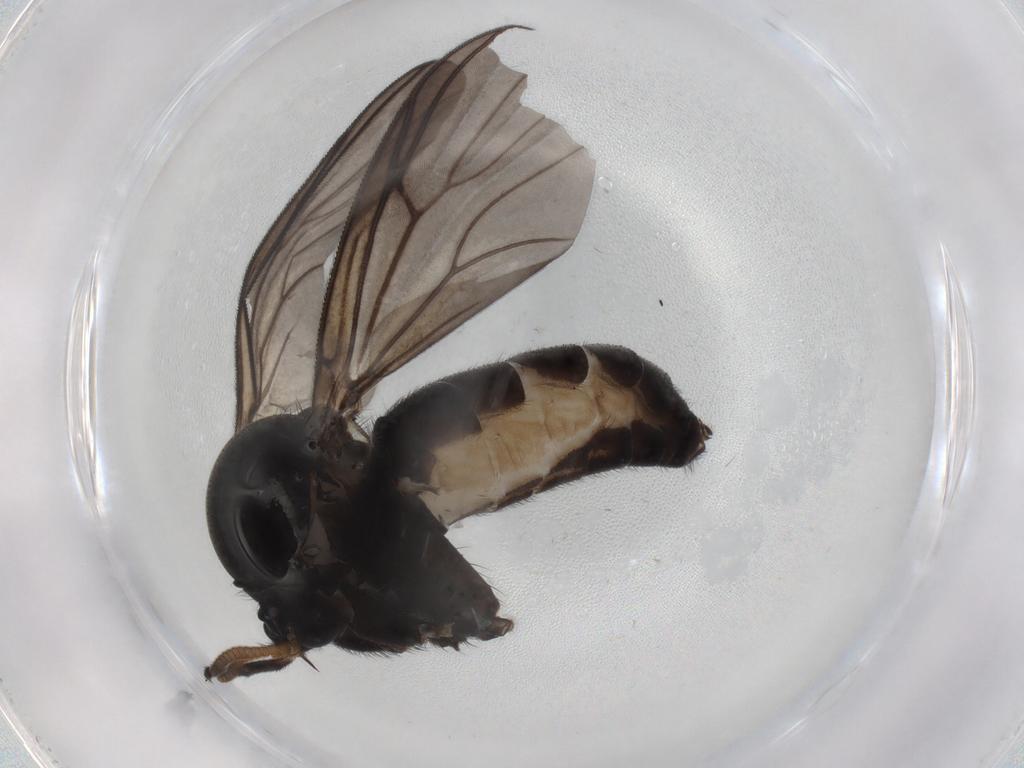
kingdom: Animalia
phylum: Arthropoda
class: Insecta
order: Diptera
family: Mycetophilidae
